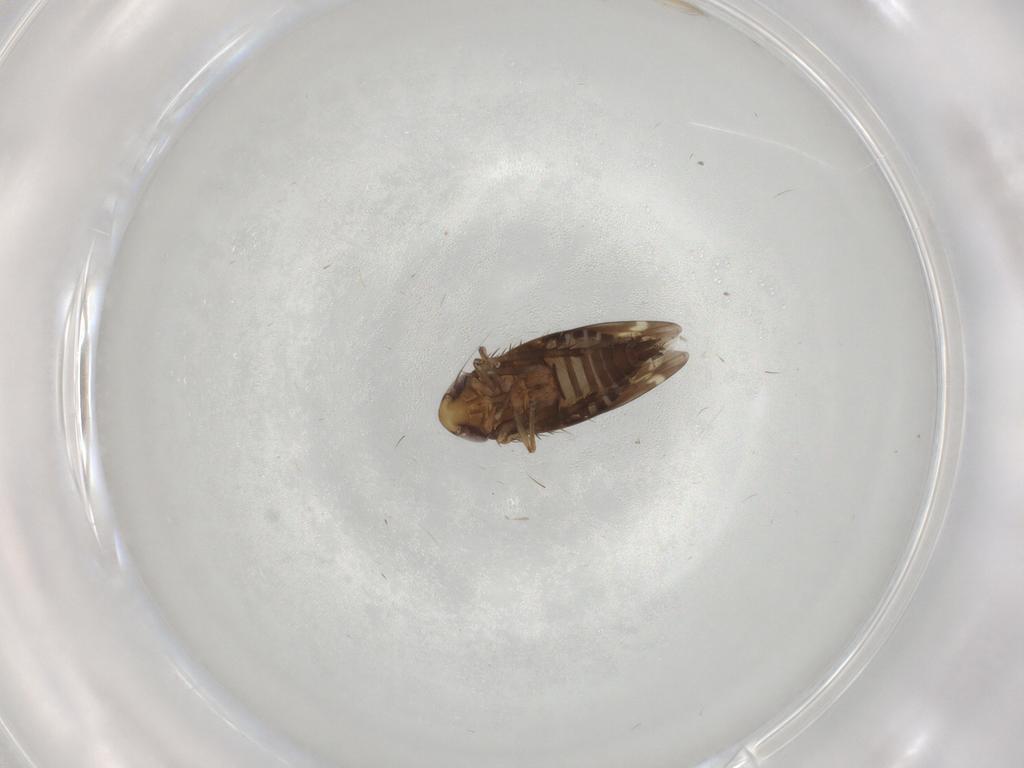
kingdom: Animalia
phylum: Arthropoda
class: Insecta
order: Hemiptera
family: Cicadellidae
